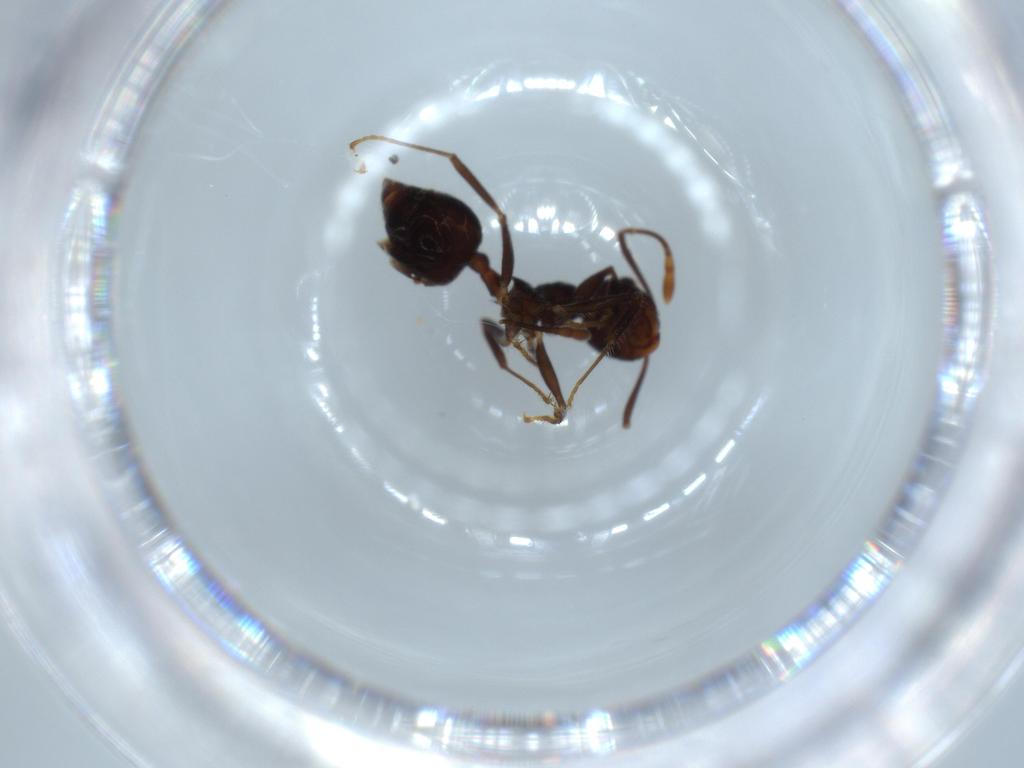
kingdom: Animalia
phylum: Arthropoda
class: Insecta
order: Hymenoptera
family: Formicidae
